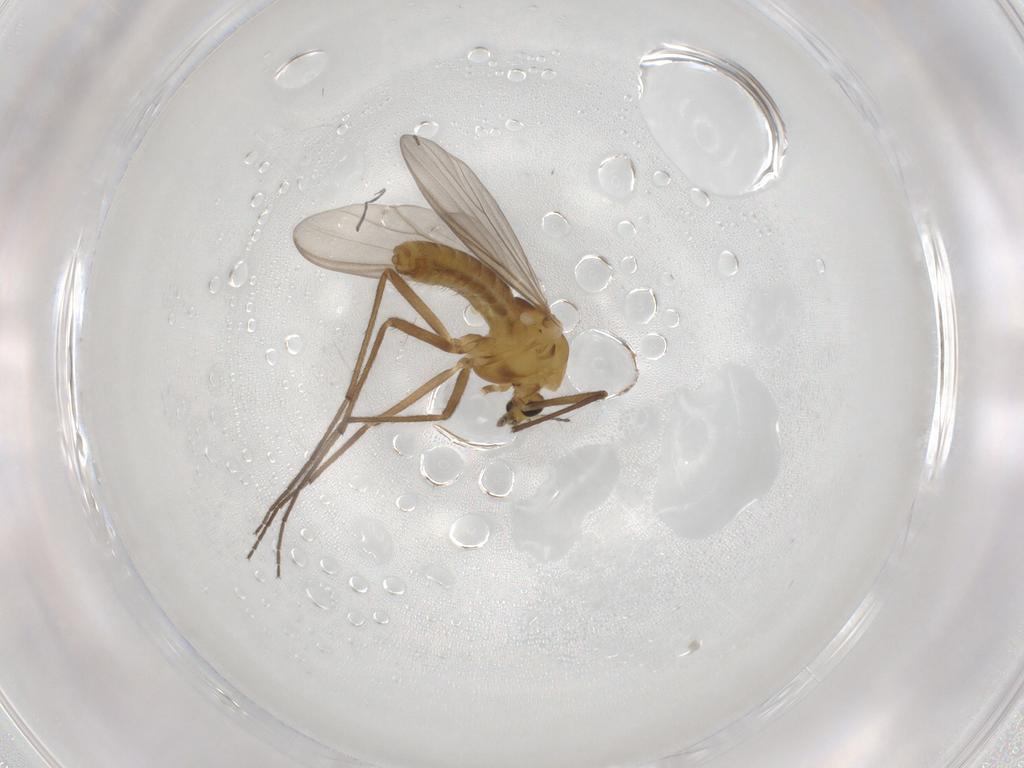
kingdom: Animalia
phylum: Arthropoda
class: Insecta
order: Diptera
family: Chironomidae
